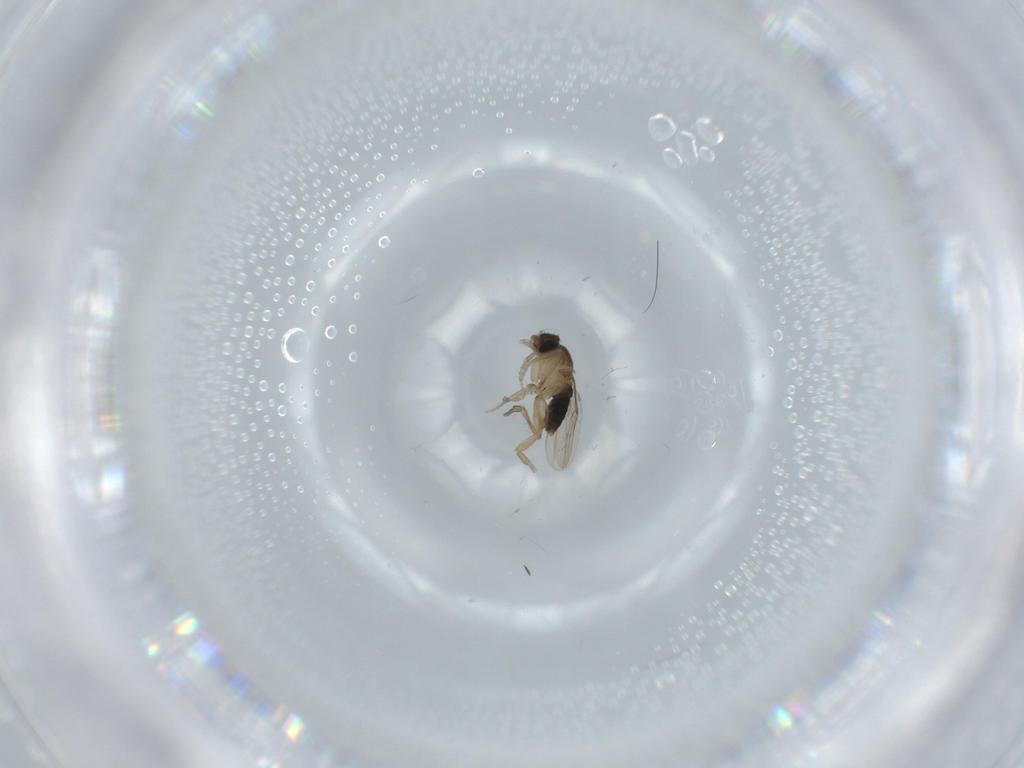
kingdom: Animalia
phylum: Arthropoda
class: Insecta
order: Diptera
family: Phoridae
